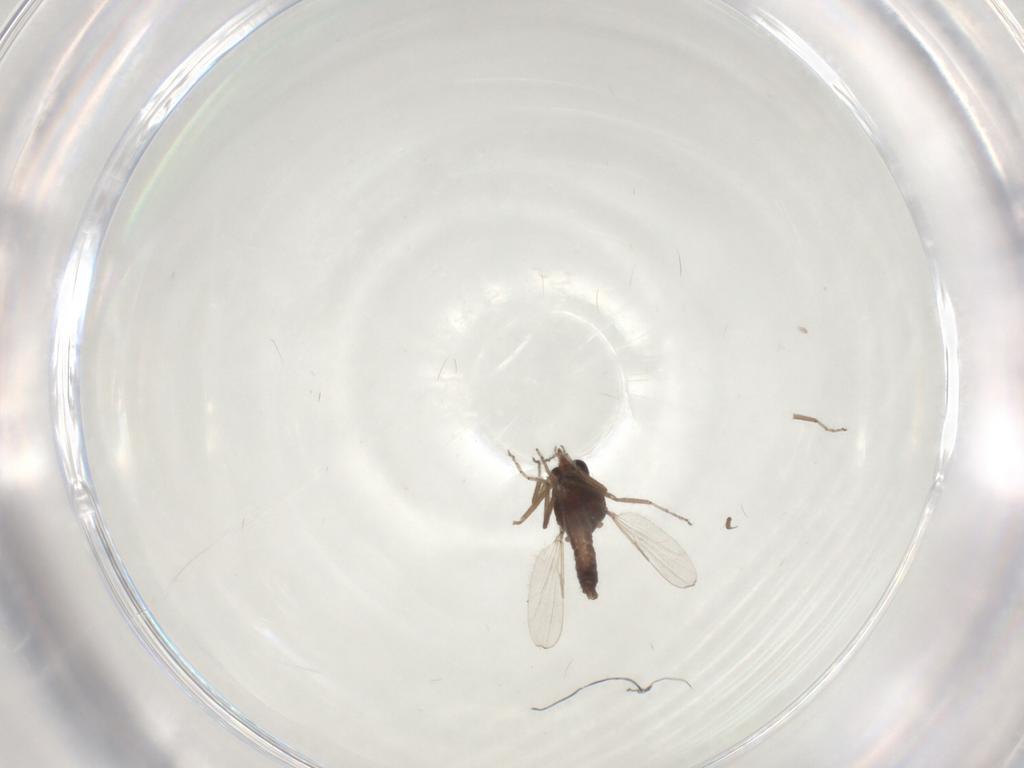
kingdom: Animalia
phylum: Arthropoda
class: Insecta
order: Diptera
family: Ceratopogonidae
